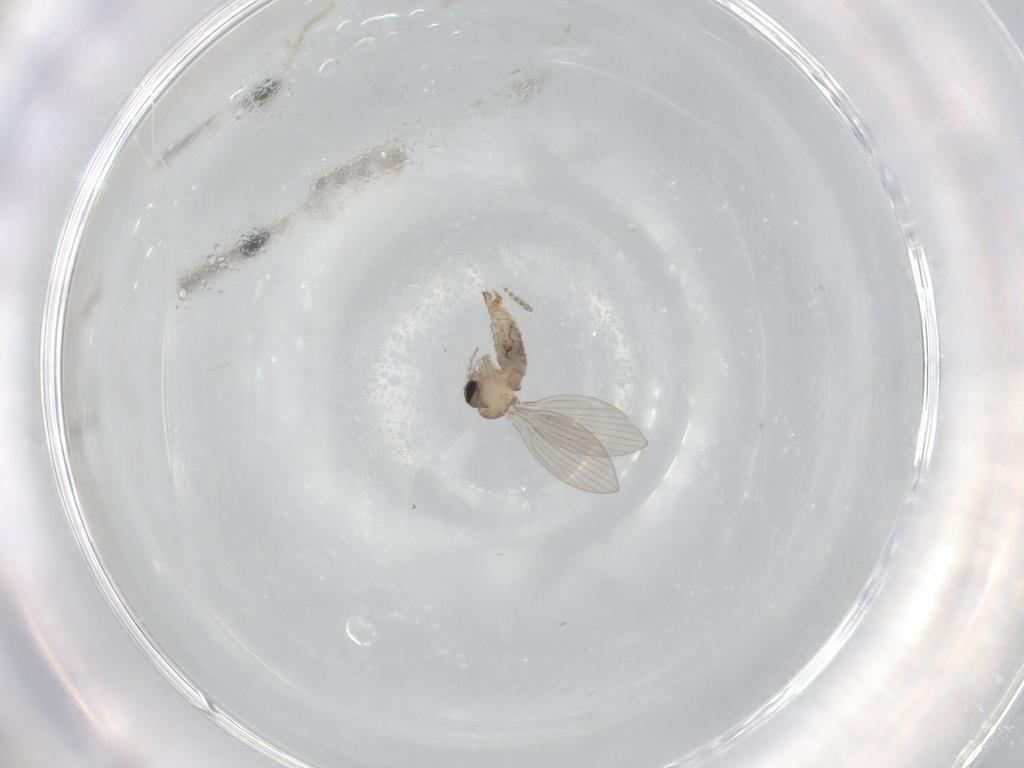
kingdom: Animalia
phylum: Arthropoda
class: Insecta
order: Diptera
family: Psychodidae
